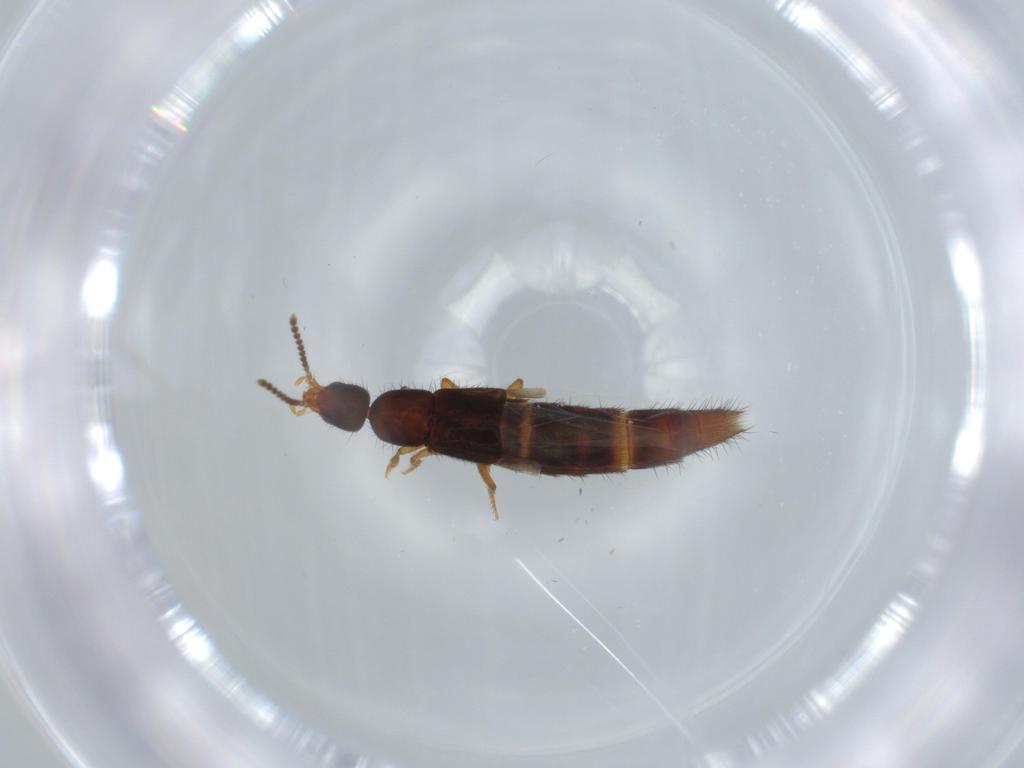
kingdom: Animalia
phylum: Arthropoda
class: Insecta
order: Coleoptera
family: Staphylinidae
